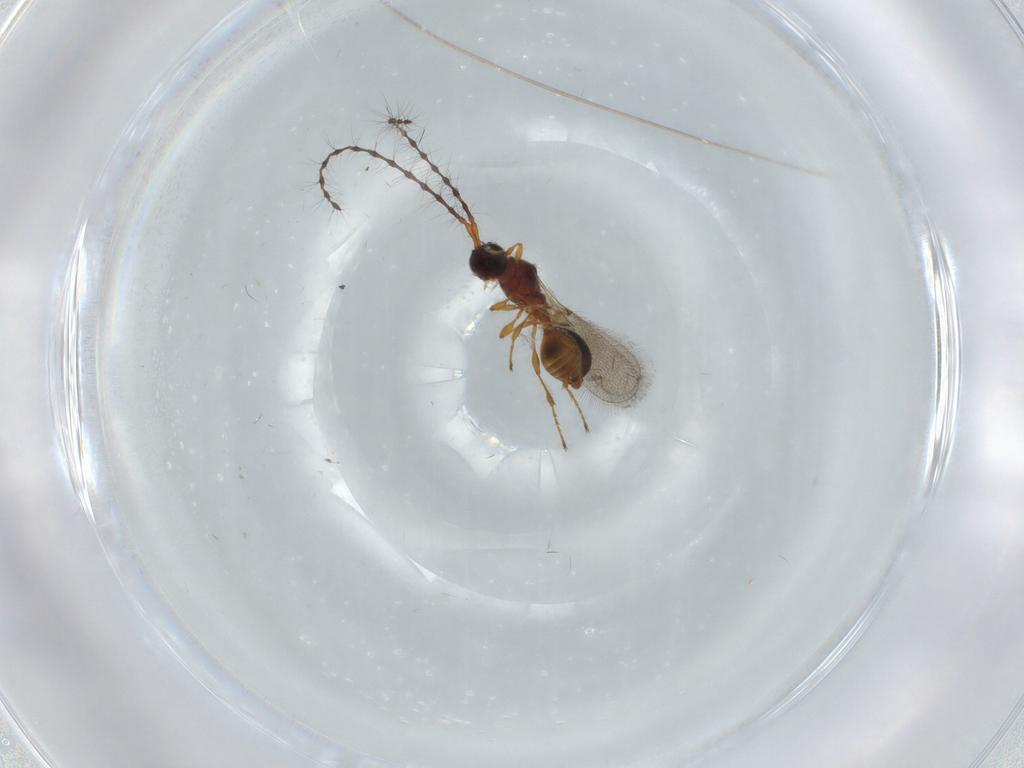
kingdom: Animalia
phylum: Arthropoda
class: Insecta
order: Hymenoptera
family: Diapriidae
